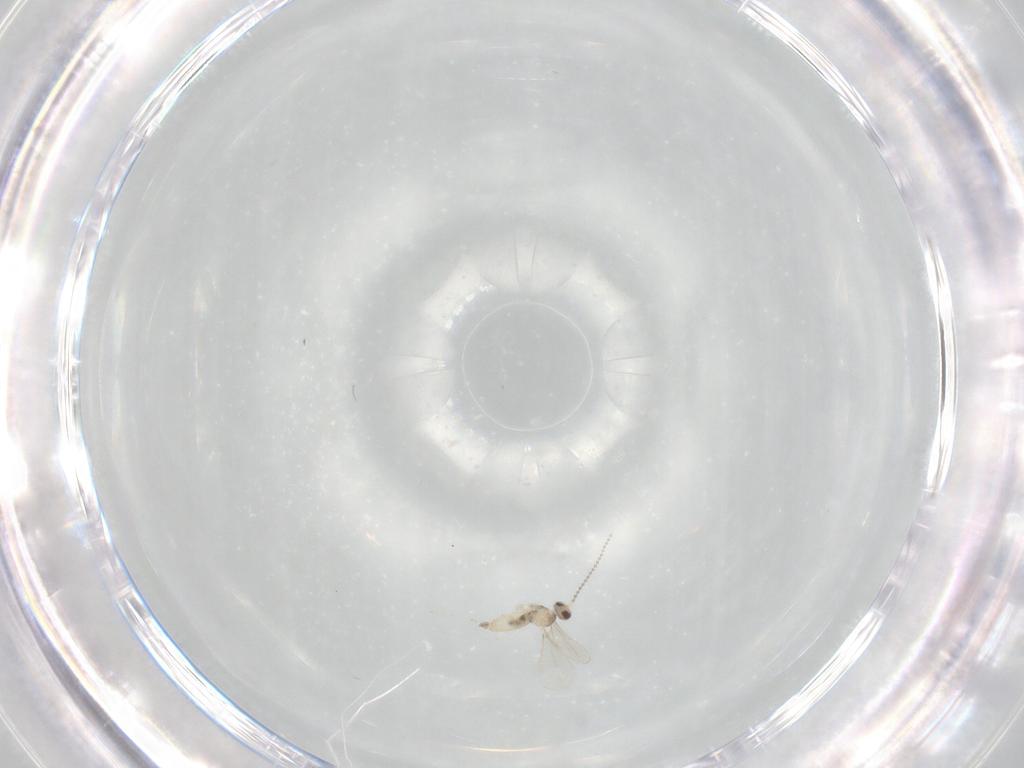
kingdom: Animalia
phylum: Arthropoda
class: Insecta
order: Diptera
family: Cecidomyiidae
